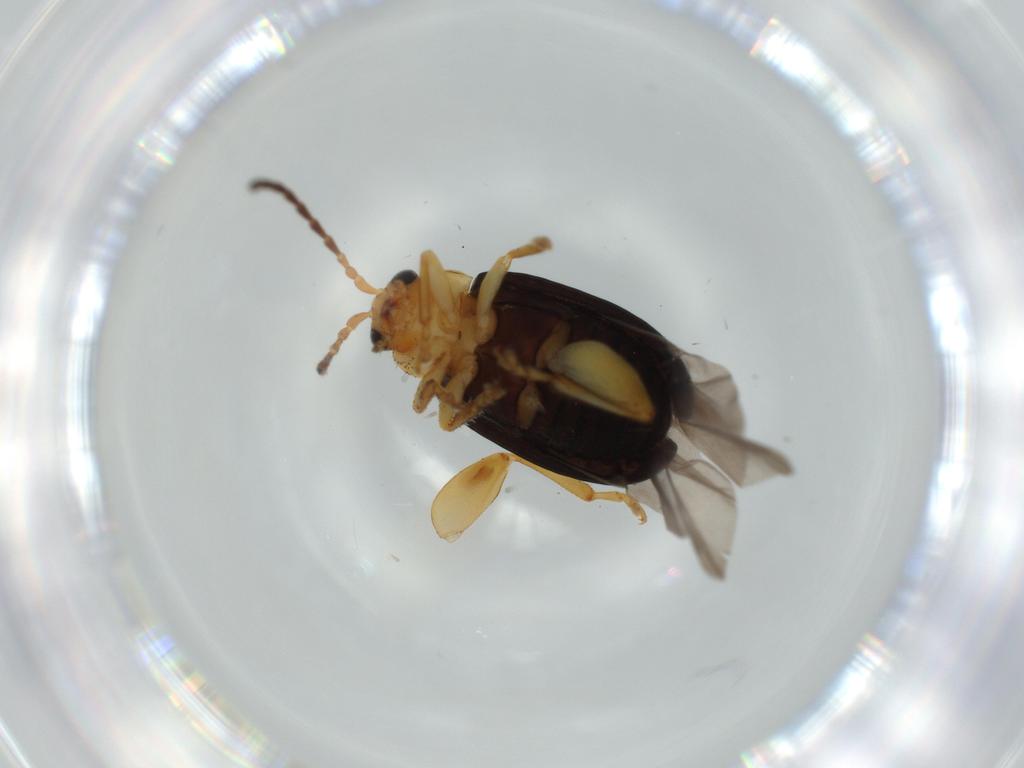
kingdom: Animalia
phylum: Arthropoda
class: Insecta
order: Coleoptera
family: Chrysomelidae
